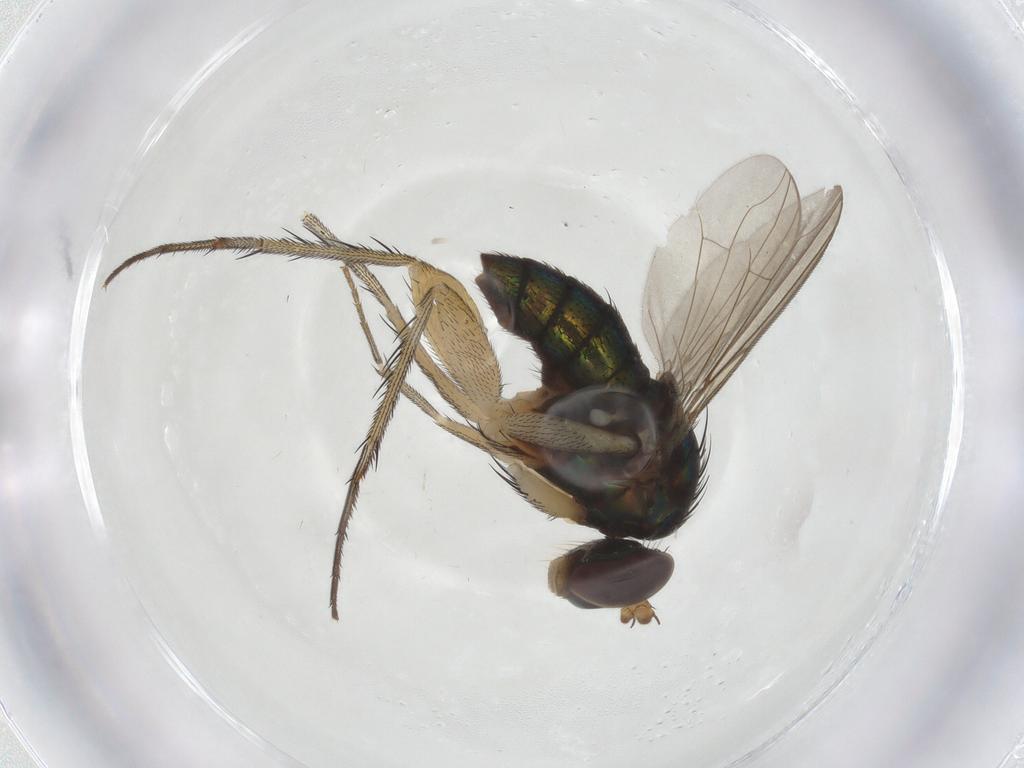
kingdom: Animalia
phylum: Arthropoda
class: Insecta
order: Diptera
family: Dolichopodidae
